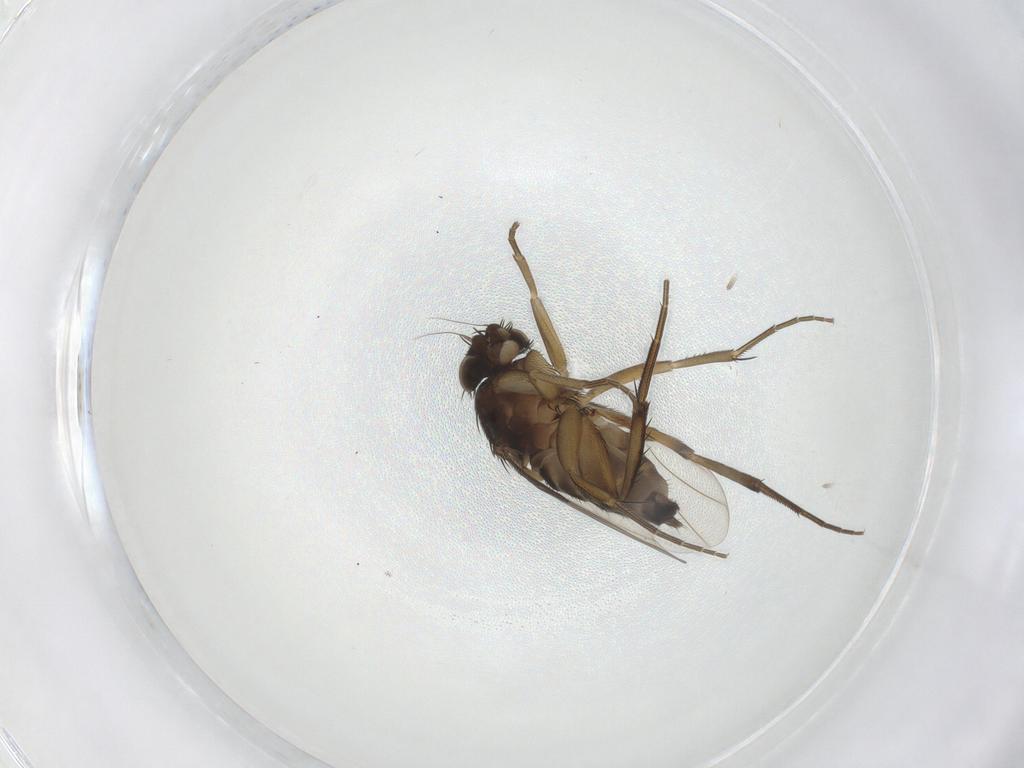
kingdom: Animalia
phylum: Arthropoda
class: Insecta
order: Diptera
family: Phoridae
